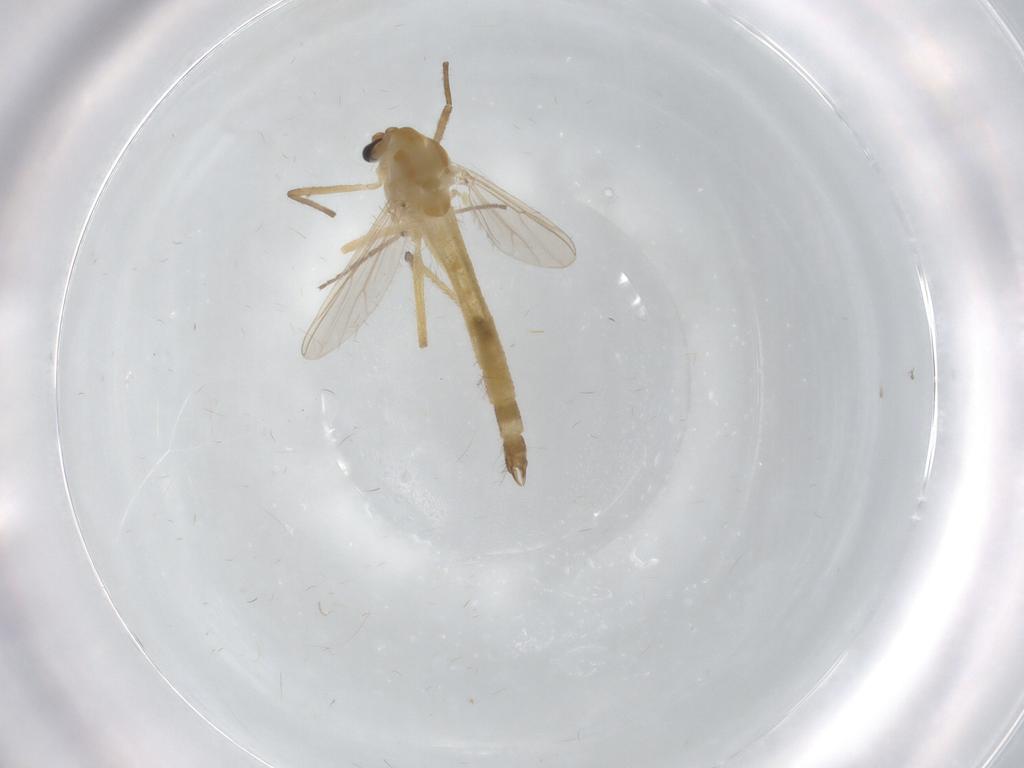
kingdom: Animalia
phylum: Arthropoda
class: Insecta
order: Diptera
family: Chironomidae
